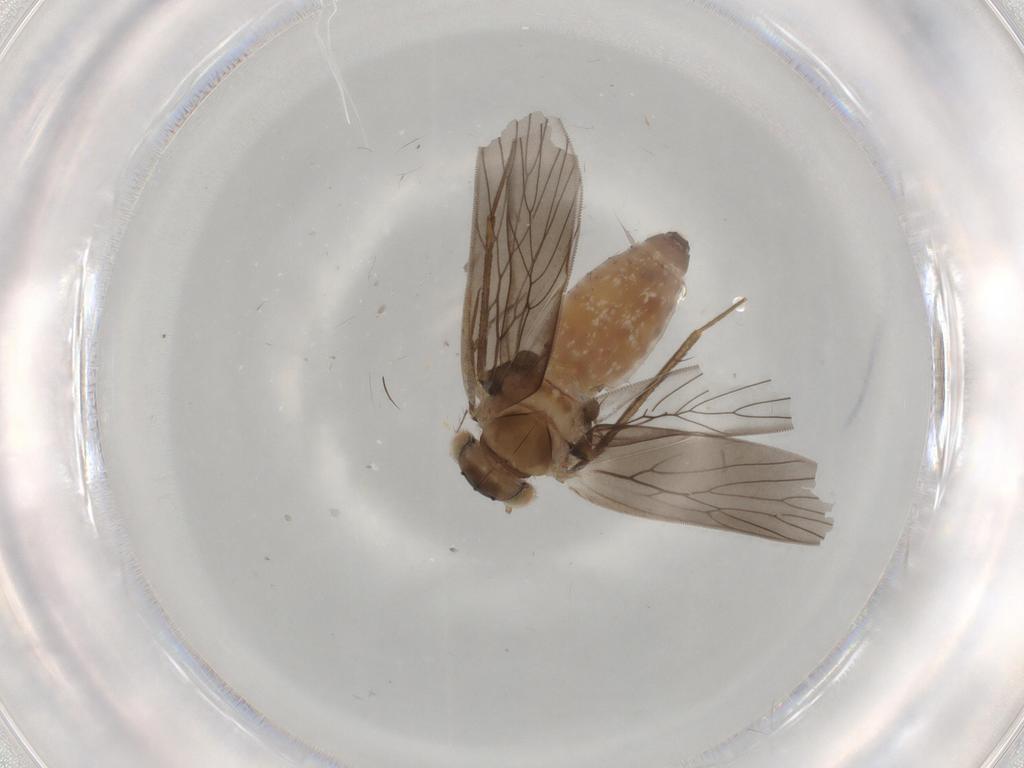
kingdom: Animalia
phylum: Arthropoda
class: Insecta
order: Psocodea
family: Lepidopsocidae
